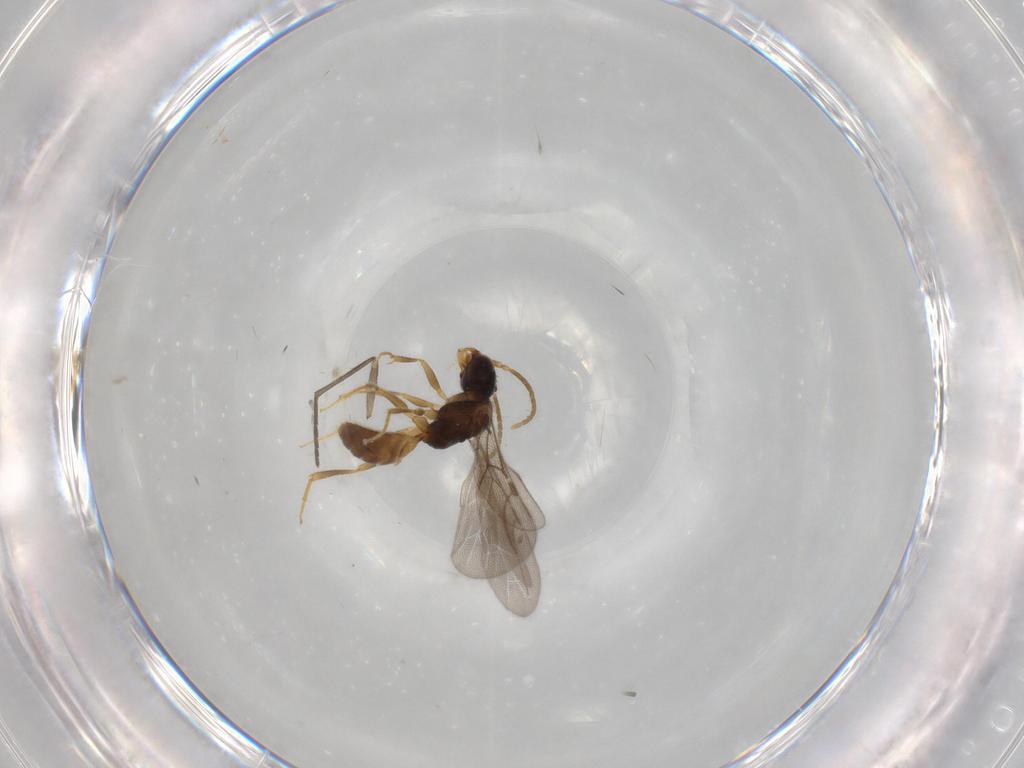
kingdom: Animalia
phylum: Arthropoda
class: Insecta
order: Hymenoptera
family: Bethylidae
